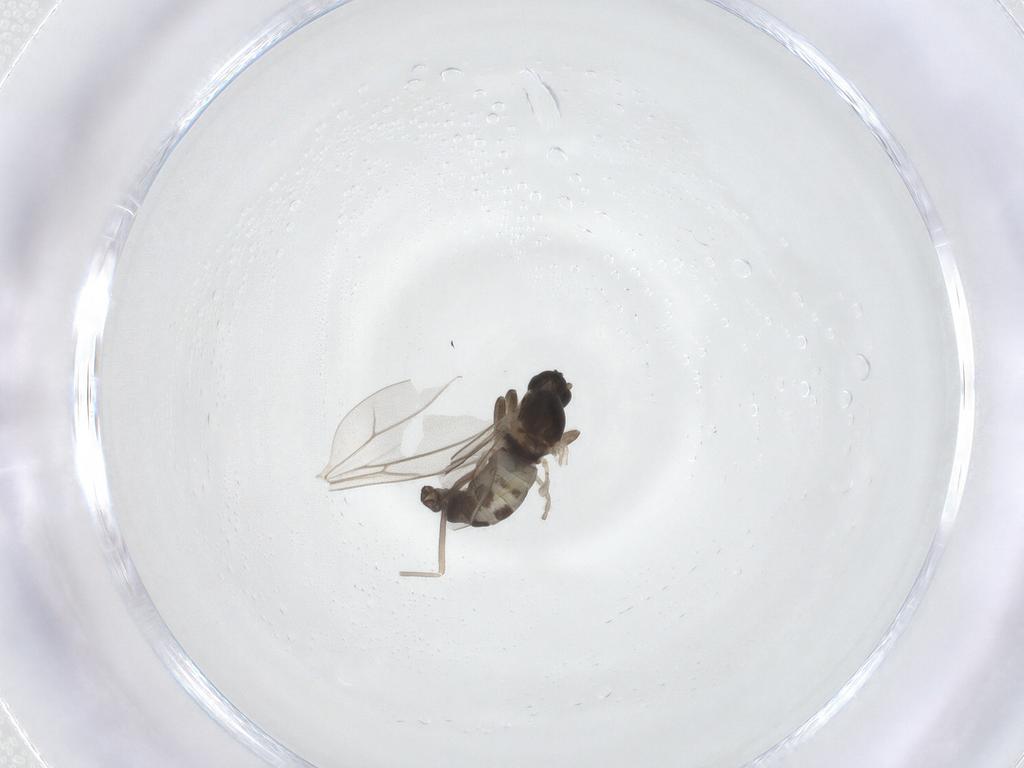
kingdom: Animalia
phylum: Arthropoda
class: Insecta
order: Diptera
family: Cecidomyiidae
